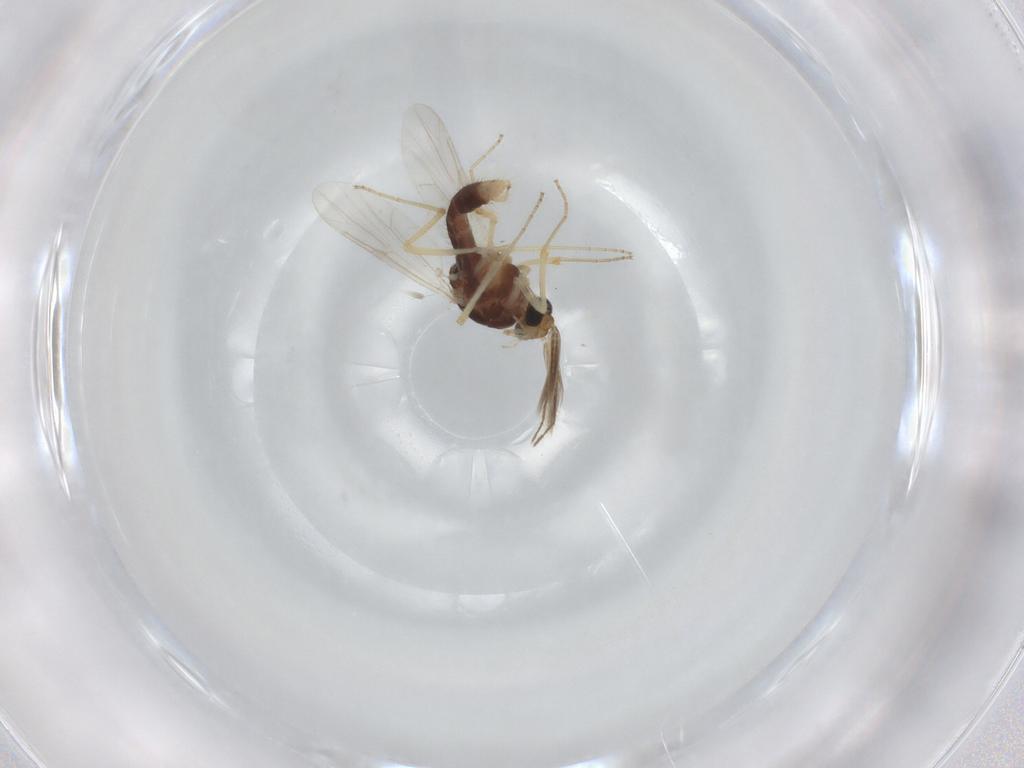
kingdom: Animalia
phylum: Arthropoda
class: Insecta
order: Diptera
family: Ceratopogonidae
